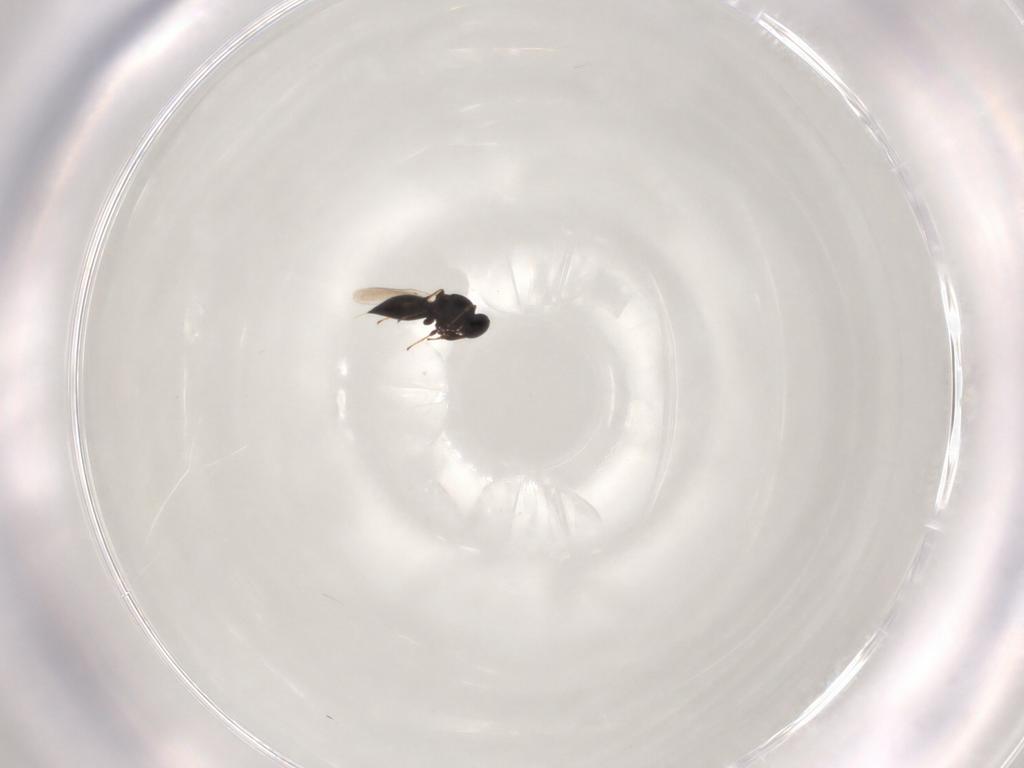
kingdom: Animalia
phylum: Arthropoda
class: Insecta
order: Hymenoptera
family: Platygastridae
